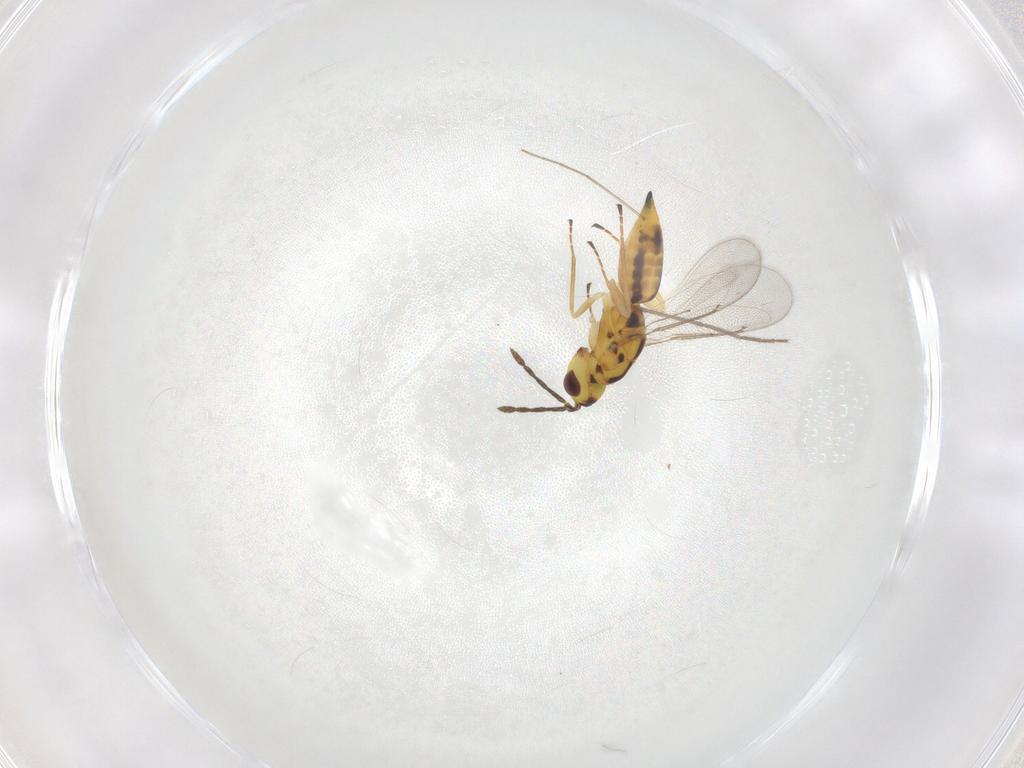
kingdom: Animalia
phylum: Arthropoda
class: Insecta
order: Hymenoptera
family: Eulophidae
